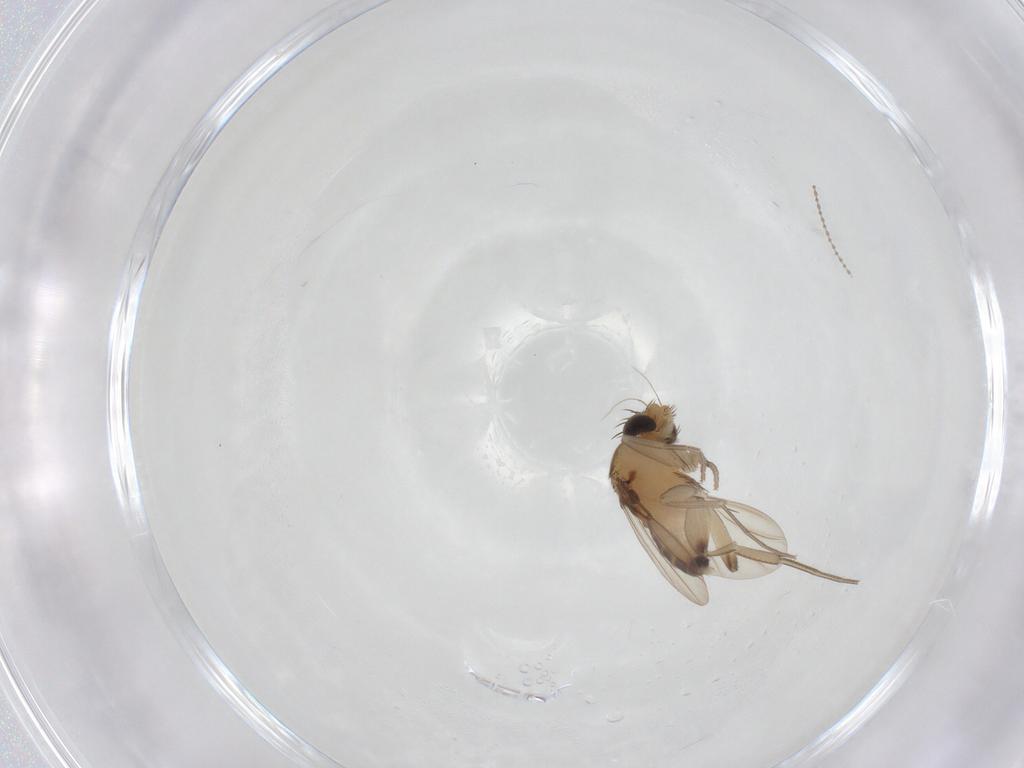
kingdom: Animalia
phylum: Arthropoda
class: Insecta
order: Diptera
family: Cecidomyiidae
